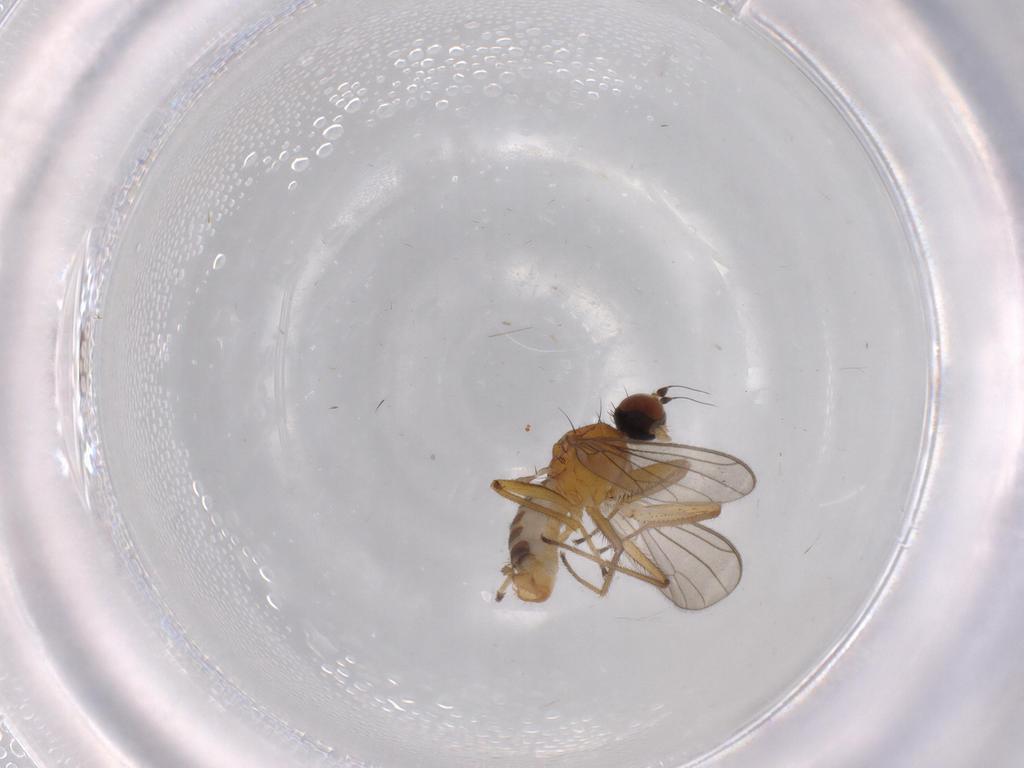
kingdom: Animalia
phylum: Arthropoda
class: Insecta
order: Diptera
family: Empididae
